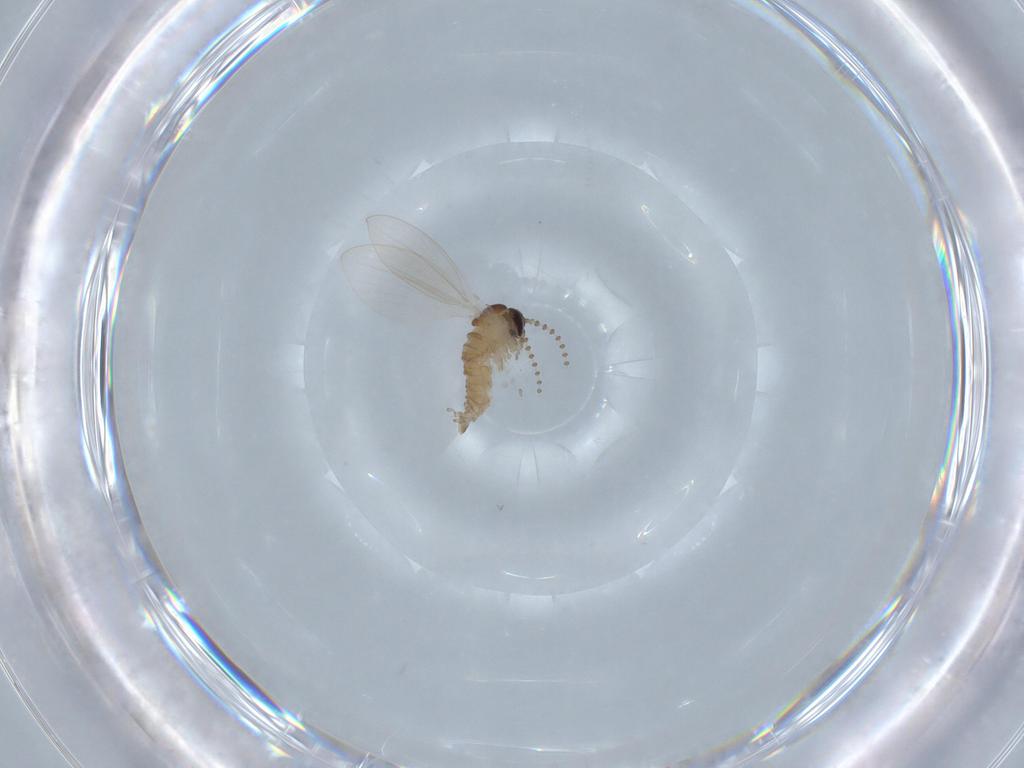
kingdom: Animalia
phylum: Arthropoda
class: Insecta
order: Diptera
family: Psychodidae
